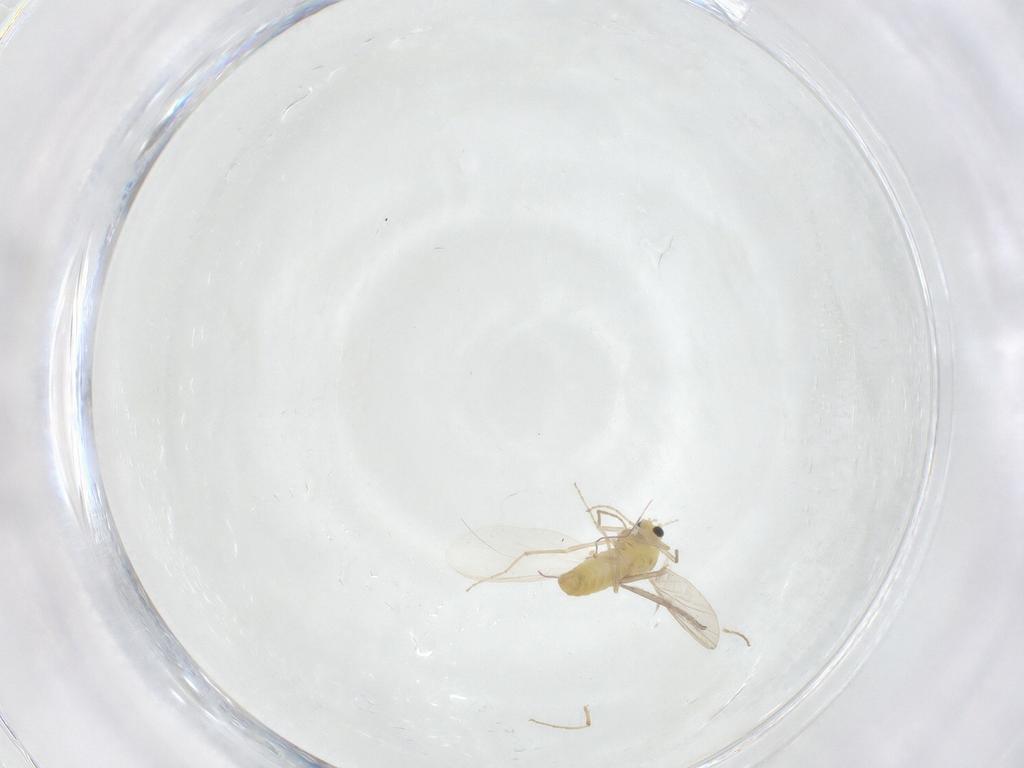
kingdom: Animalia
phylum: Arthropoda
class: Insecta
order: Diptera
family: Chironomidae
